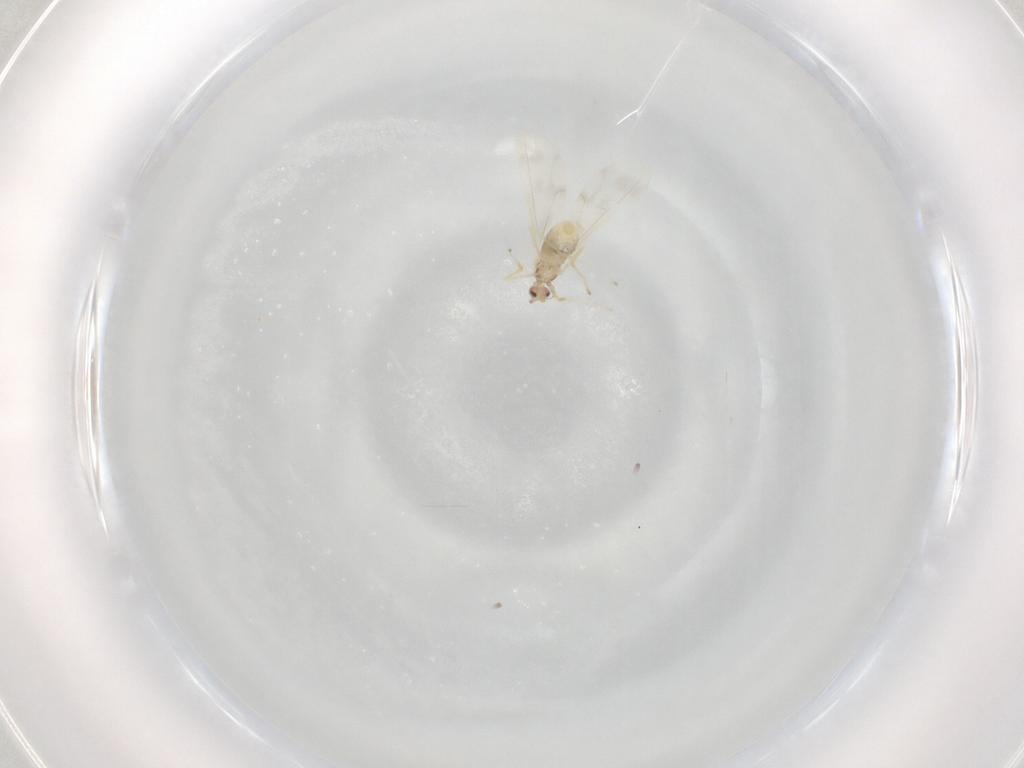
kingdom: Animalia
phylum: Arthropoda
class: Insecta
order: Diptera
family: Cecidomyiidae
